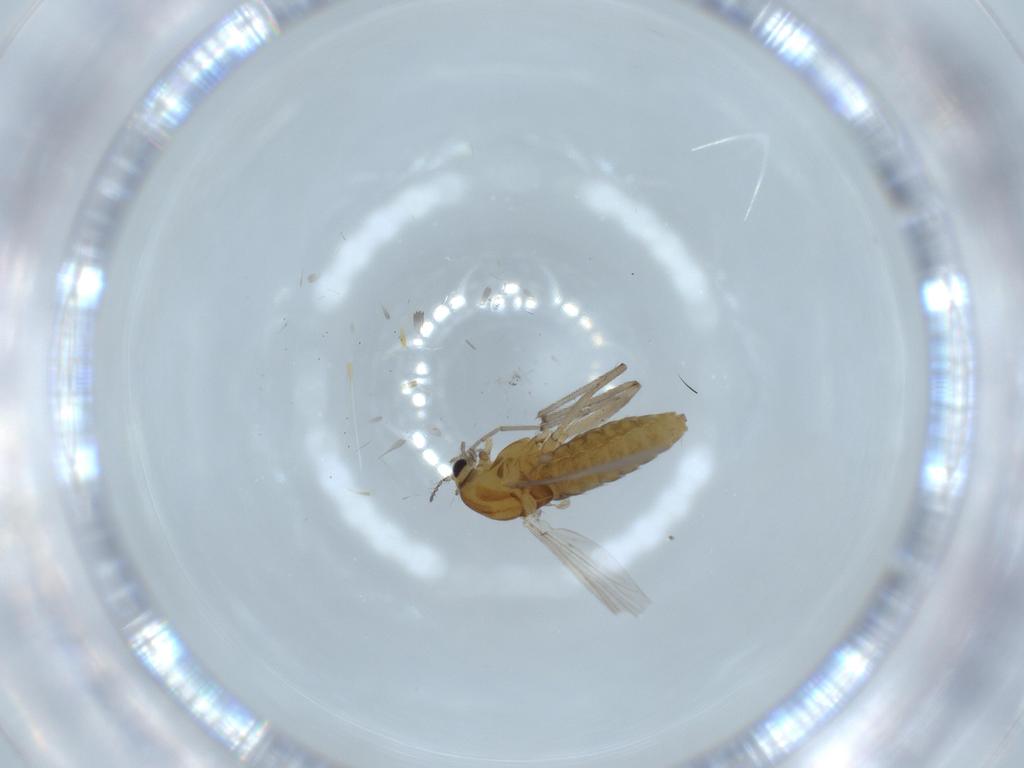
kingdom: Animalia
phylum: Arthropoda
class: Insecta
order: Diptera
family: Chironomidae
